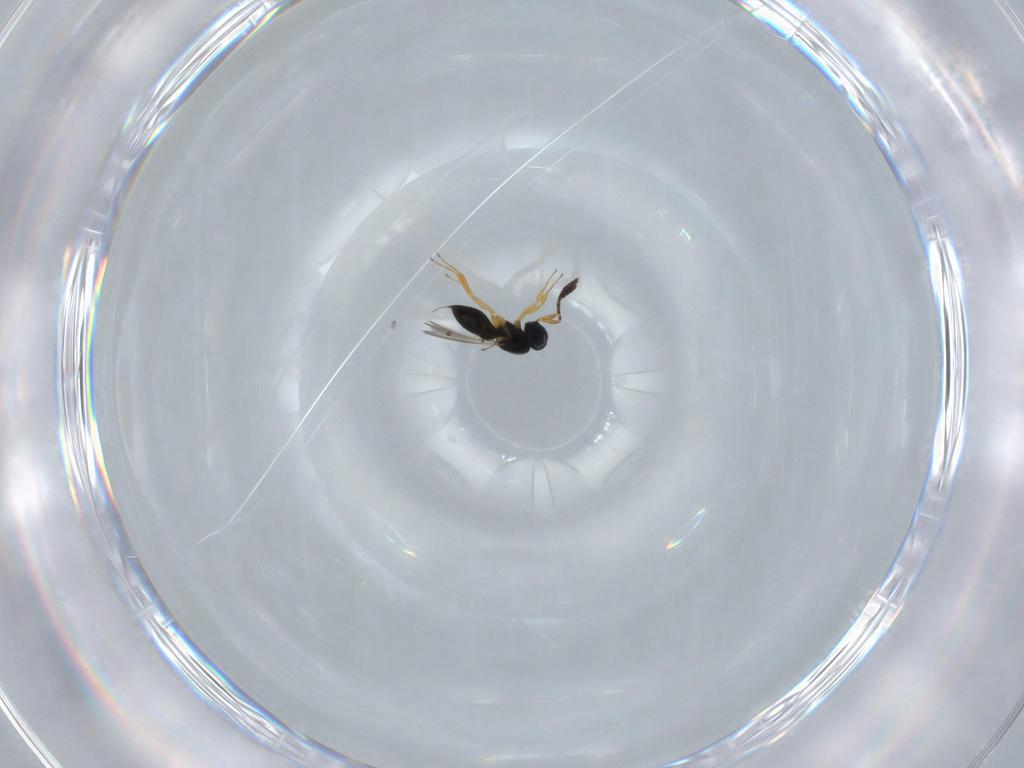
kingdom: Animalia
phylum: Arthropoda
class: Insecta
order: Hymenoptera
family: Scelionidae
